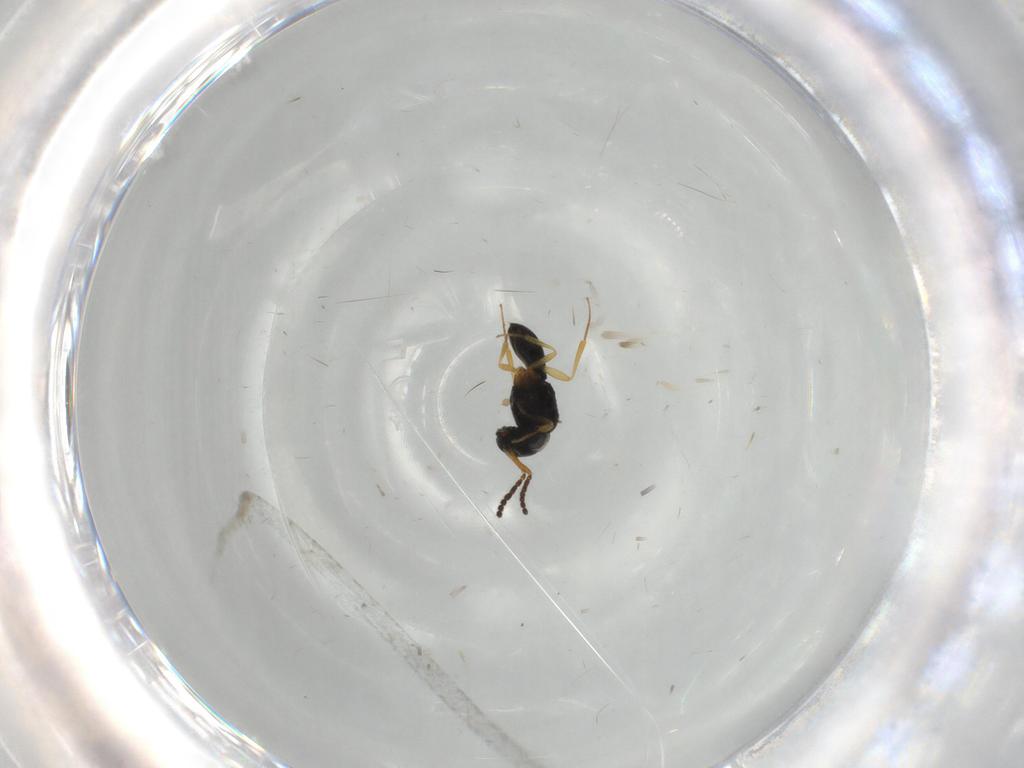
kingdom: Animalia
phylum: Arthropoda
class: Insecta
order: Hymenoptera
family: Scelionidae
